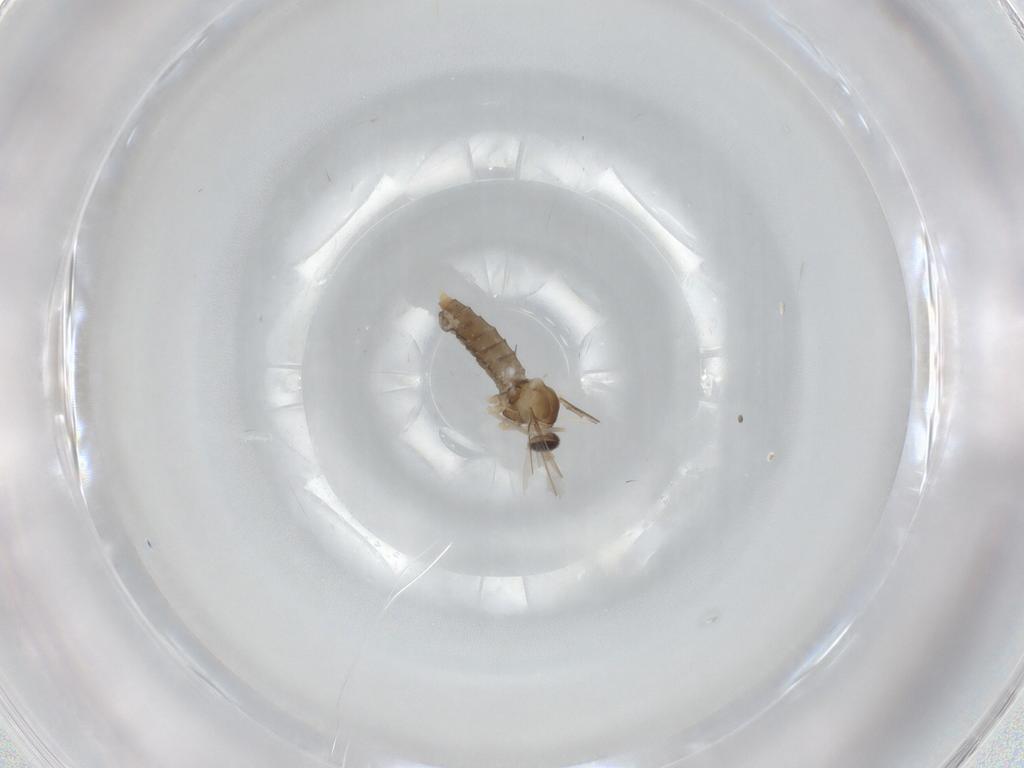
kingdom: Animalia
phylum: Arthropoda
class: Insecta
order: Diptera
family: Cecidomyiidae
